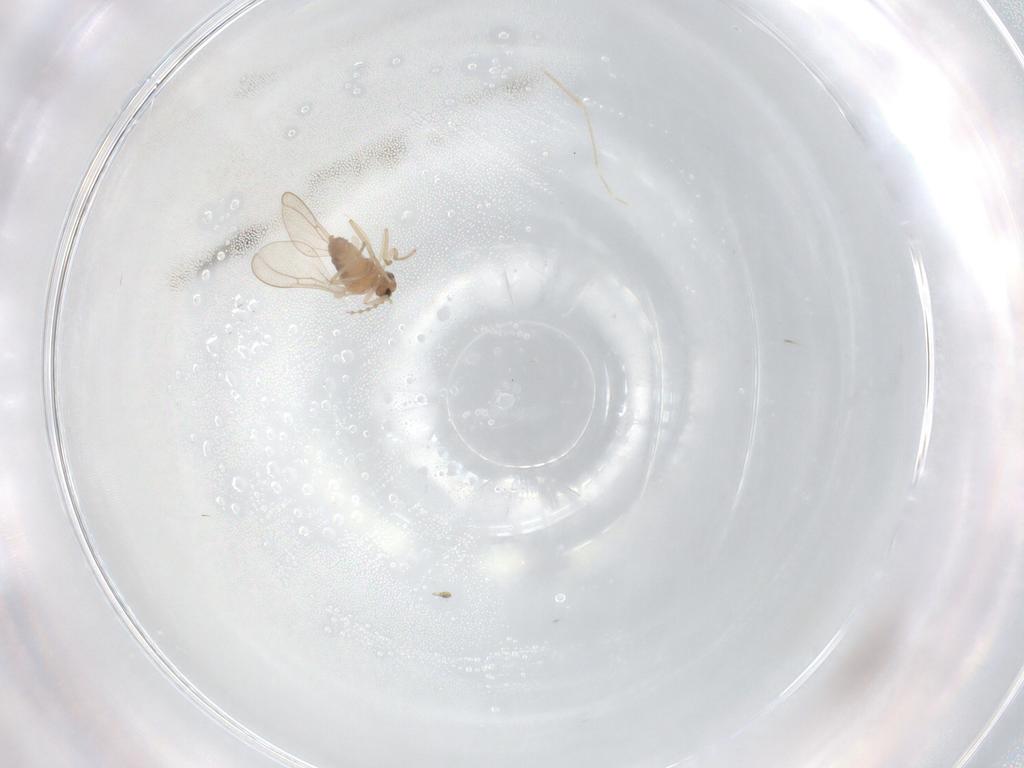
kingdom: Animalia
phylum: Arthropoda
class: Insecta
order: Diptera
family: Cecidomyiidae
